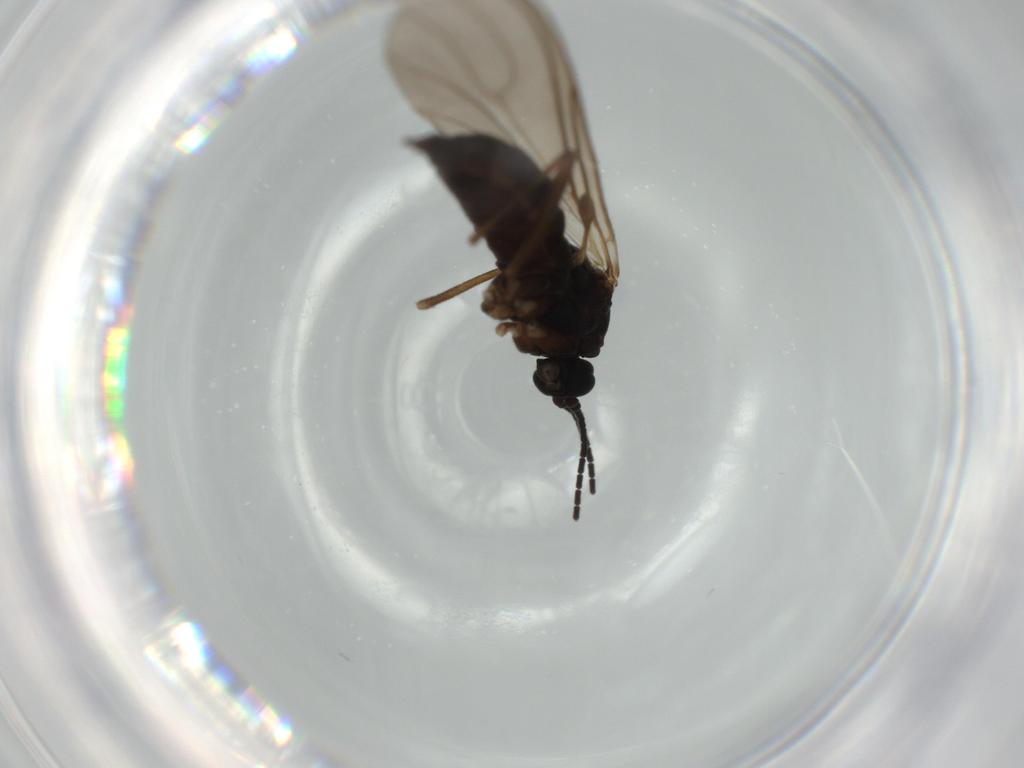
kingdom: Animalia
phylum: Arthropoda
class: Insecta
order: Diptera
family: Sciaridae
